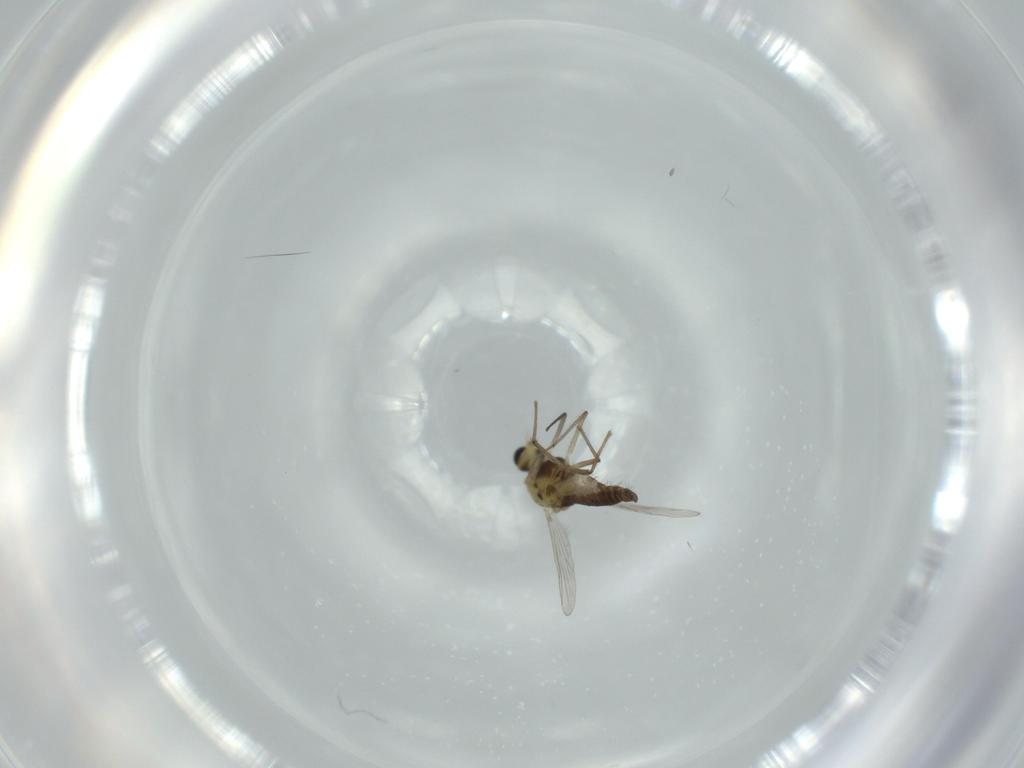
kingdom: Animalia
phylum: Arthropoda
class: Insecta
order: Diptera
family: Chironomidae
